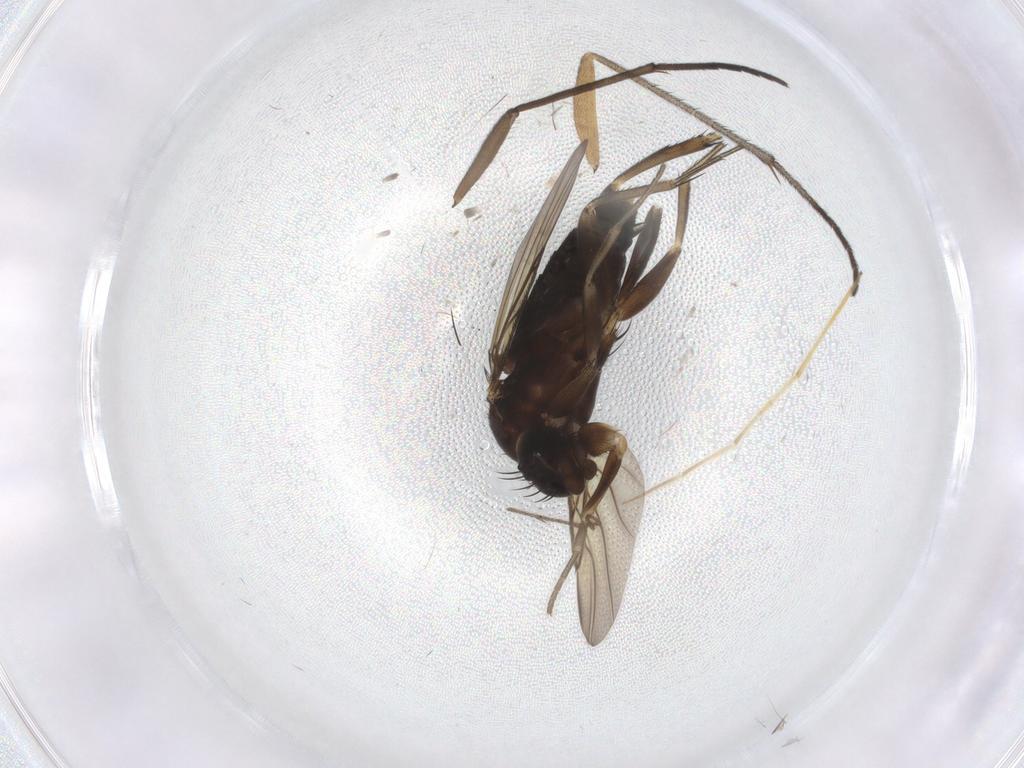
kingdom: Animalia
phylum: Arthropoda
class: Insecta
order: Diptera
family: Phoridae
